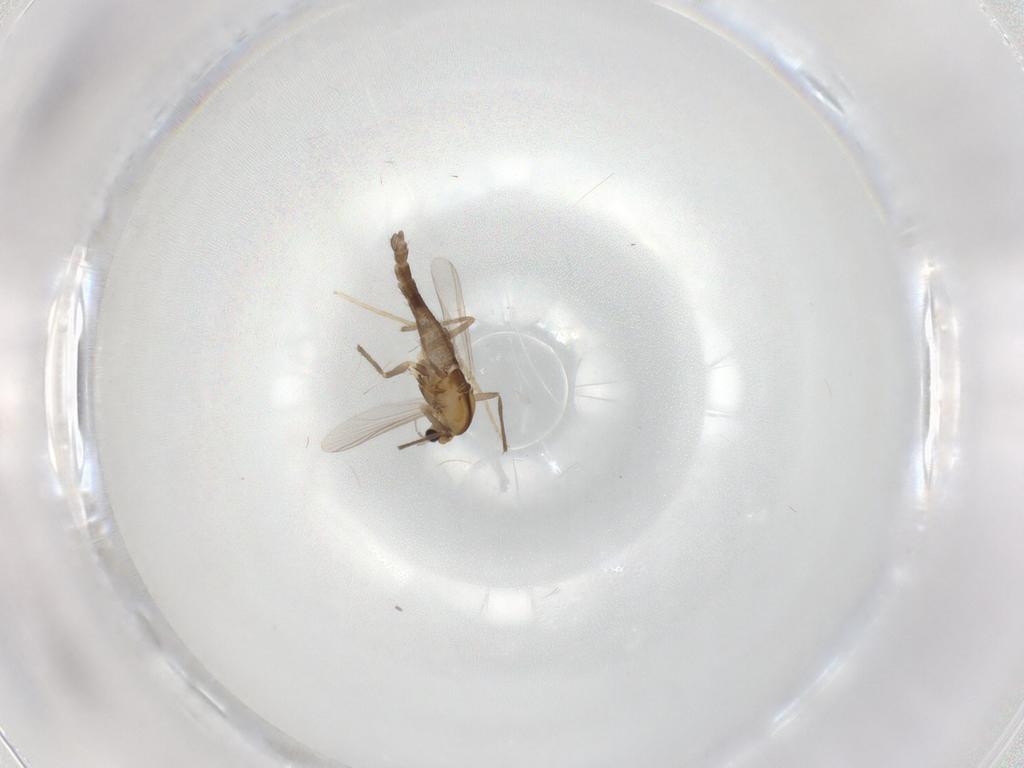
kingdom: Animalia
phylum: Arthropoda
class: Insecta
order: Diptera
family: Chironomidae
